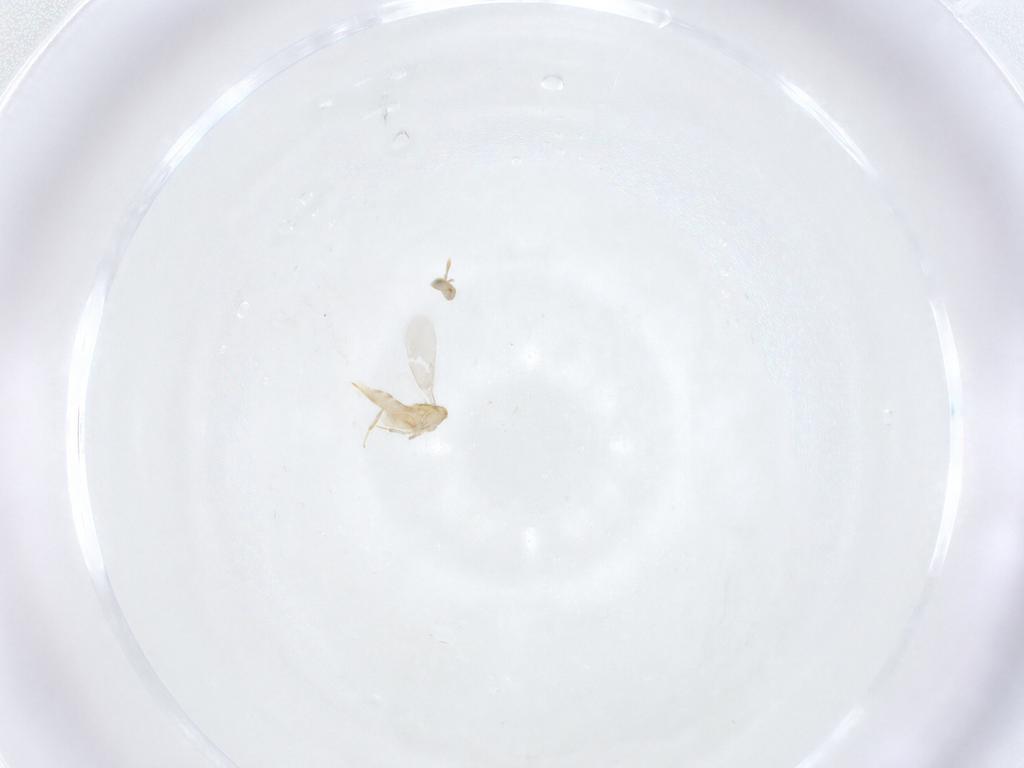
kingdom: Animalia
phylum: Arthropoda
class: Insecta
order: Hymenoptera
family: Aphelinidae
